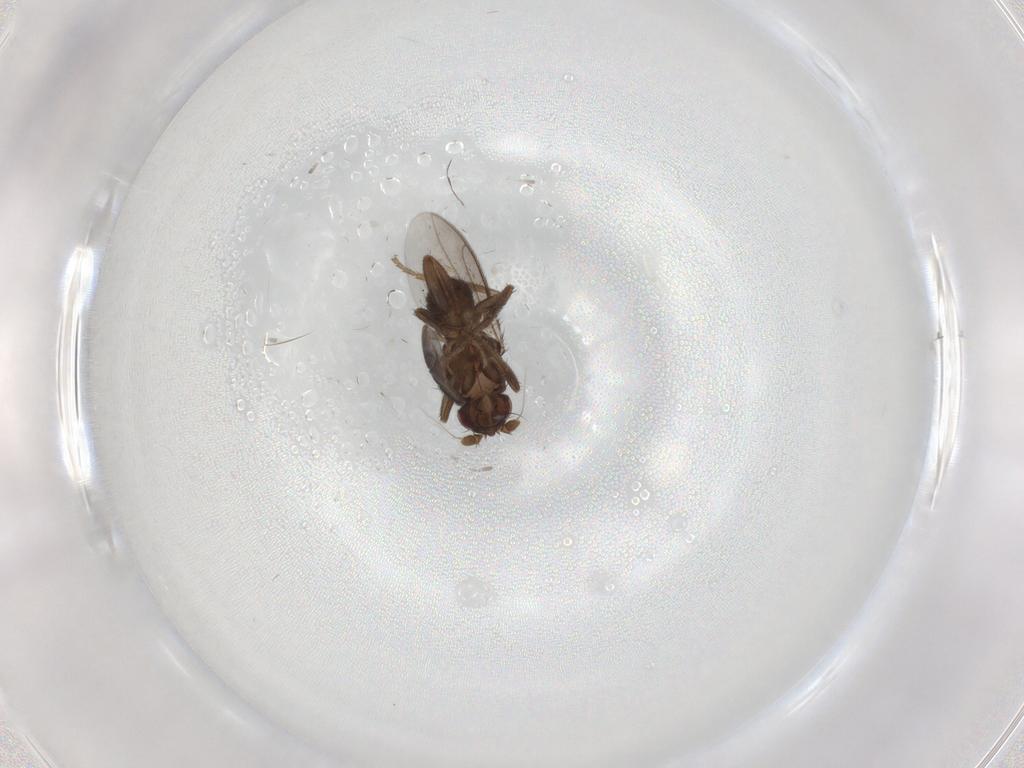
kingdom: Animalia
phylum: Arthropoda
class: Insecta
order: Diptera
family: Sphaeroceridae
